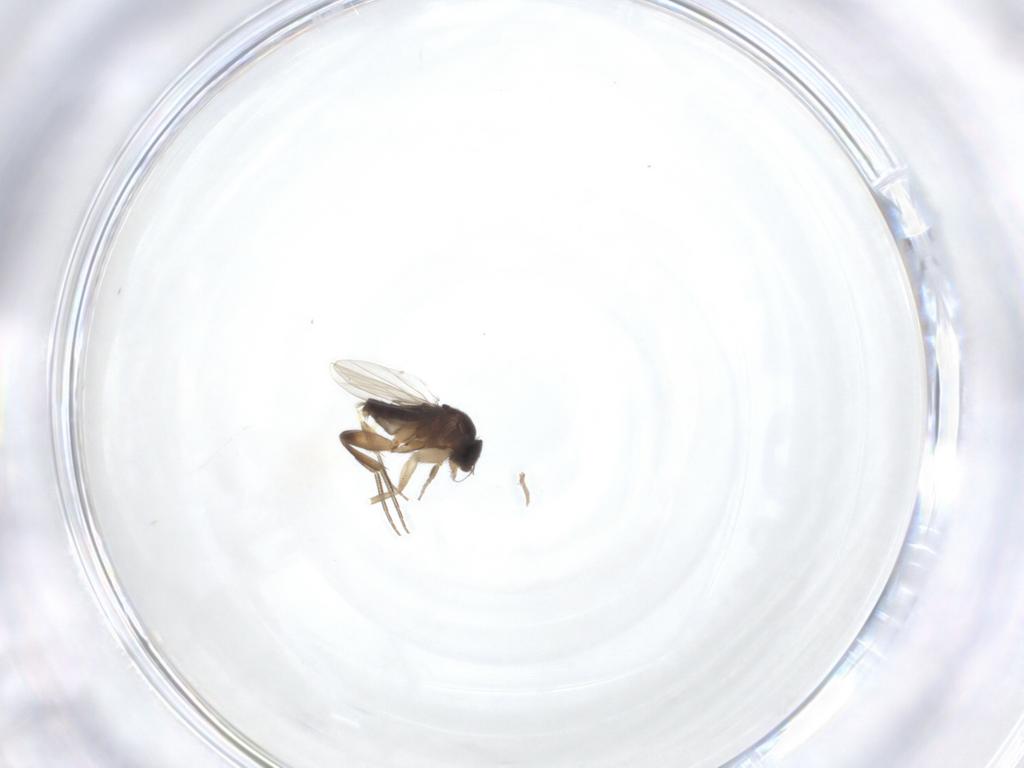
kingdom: Animalia
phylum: Arthropoda
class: Insecta
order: Diptera
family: Phoridae
